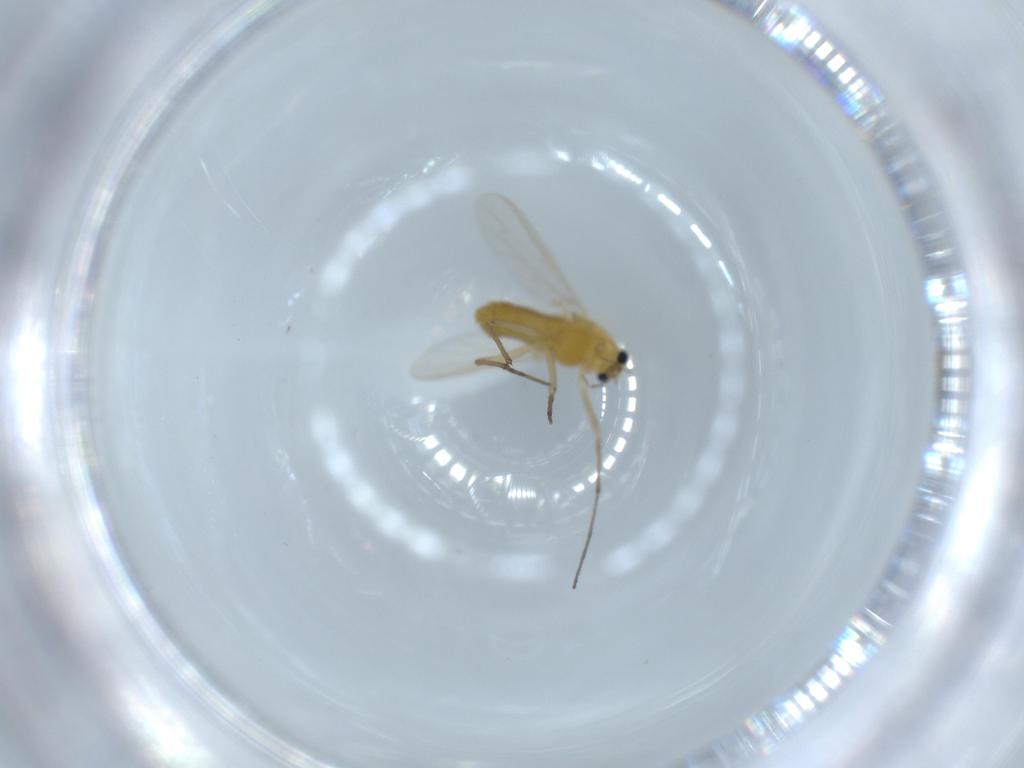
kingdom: Animalia
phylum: Arthropoda
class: Insecta
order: Diptera
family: Chironomidae
